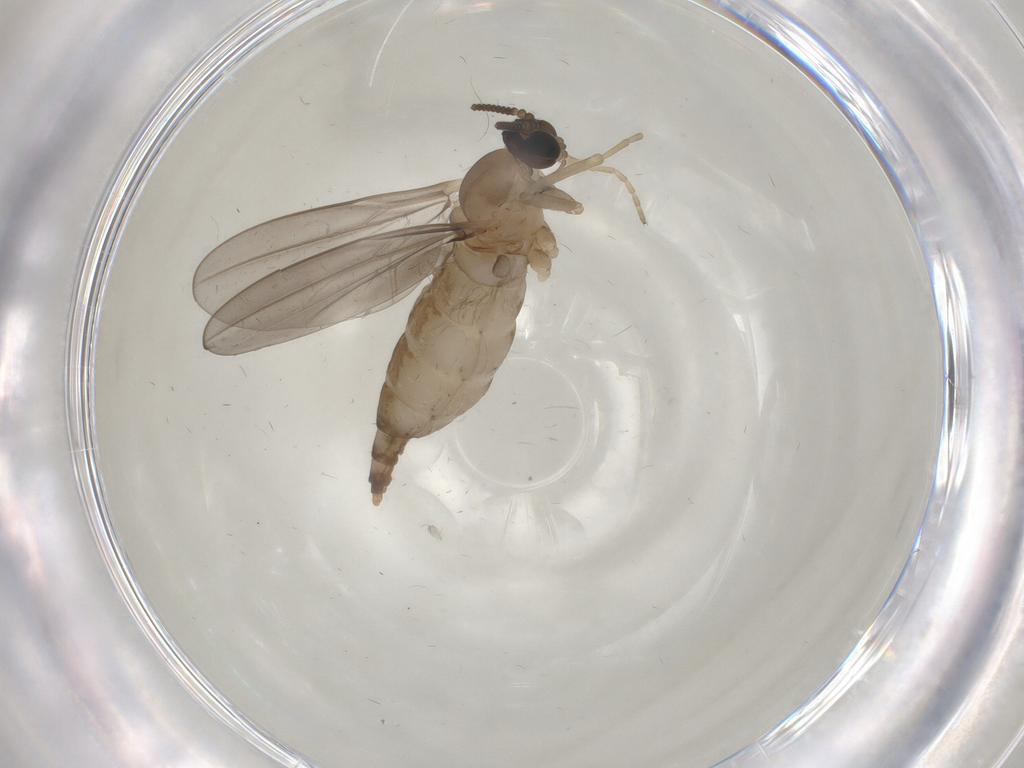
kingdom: Animalia
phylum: Arthropoda
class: Insecta
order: Diptera
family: Cecidomyiidae
